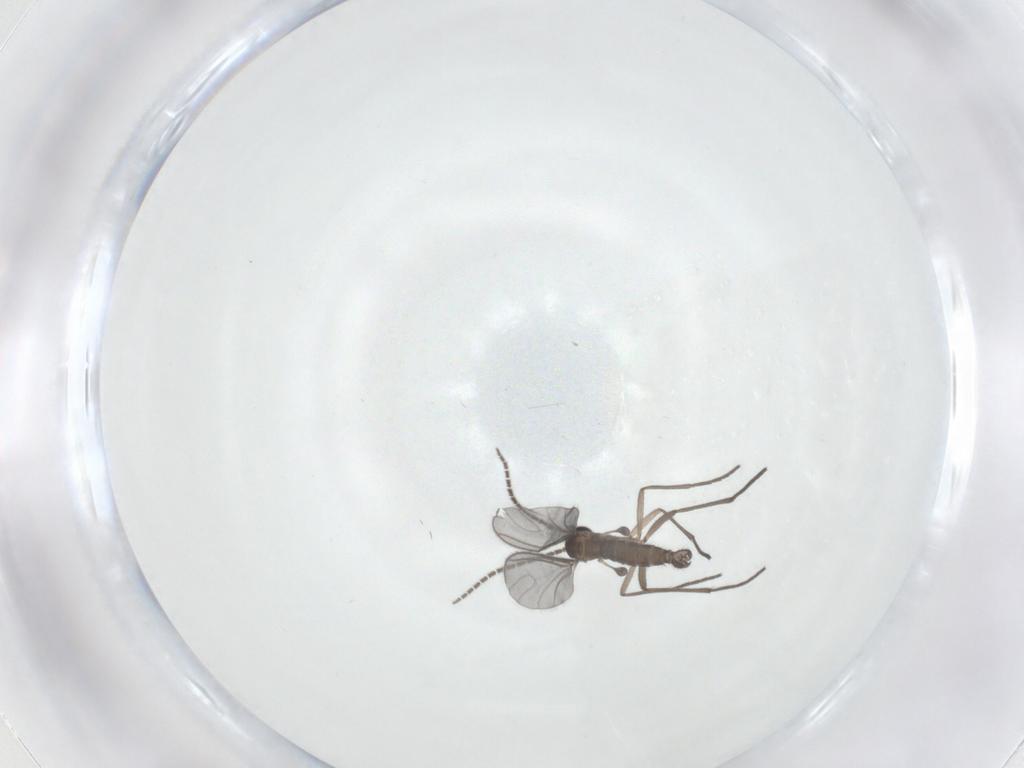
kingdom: Animalia
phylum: Arthropoda
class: Insecta
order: Diptera
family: Sciaridae
